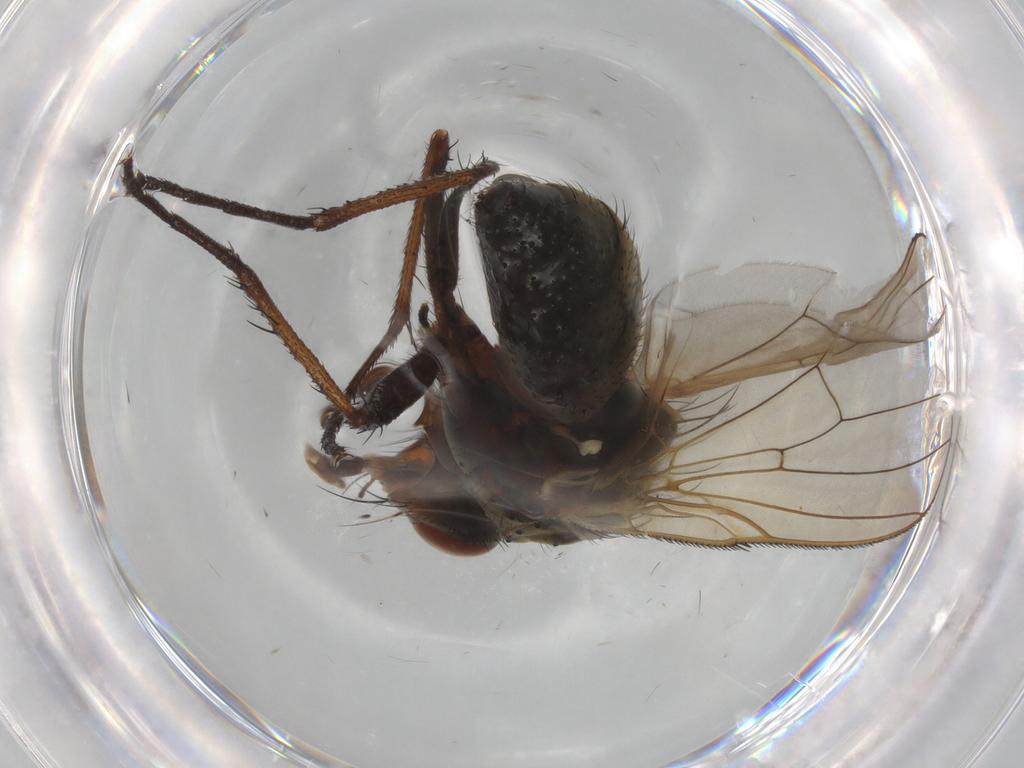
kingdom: Animalia
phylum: Arthropoda
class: Insecta
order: Diptera
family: Anthomyiidae
